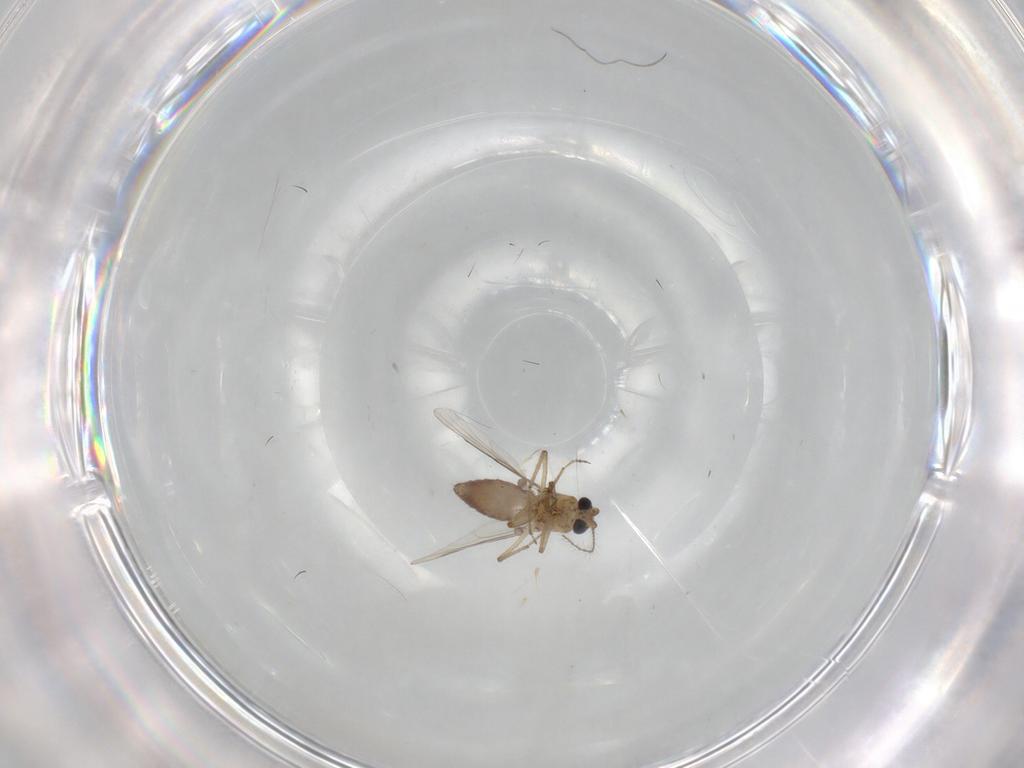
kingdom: Animalia
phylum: Arthropoda
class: Insecta
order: Diptera
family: Ceratopogonidae
